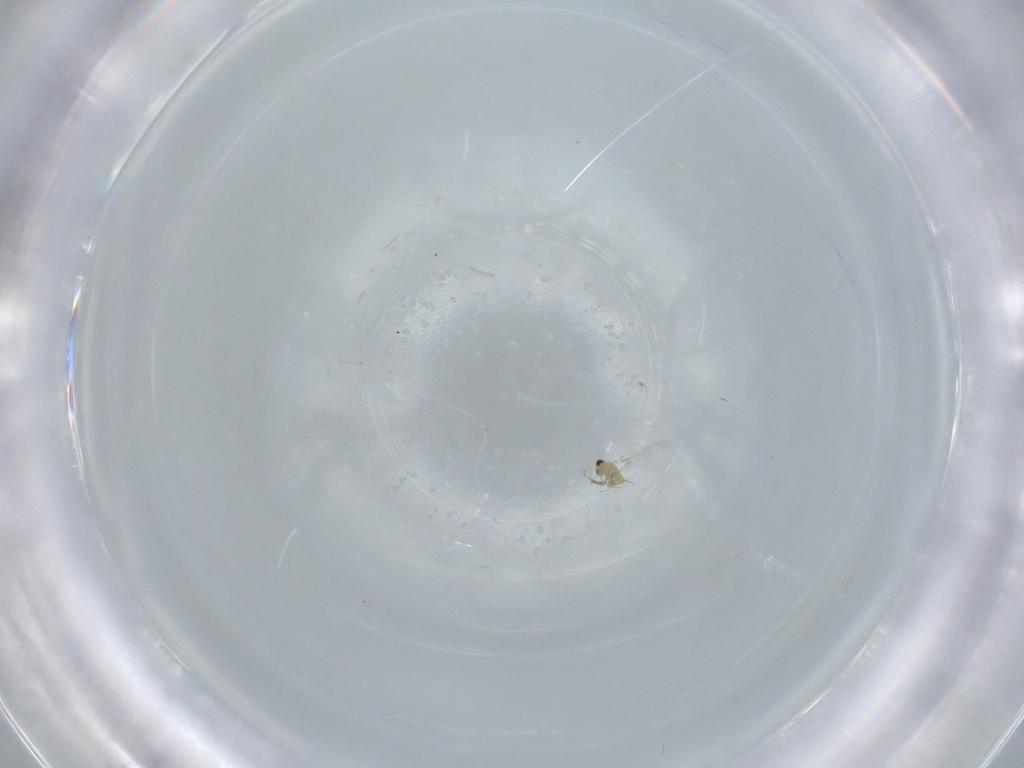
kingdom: Animalia
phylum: Arthropoda
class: Insecta
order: Hymenoptera
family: Mymaridae
